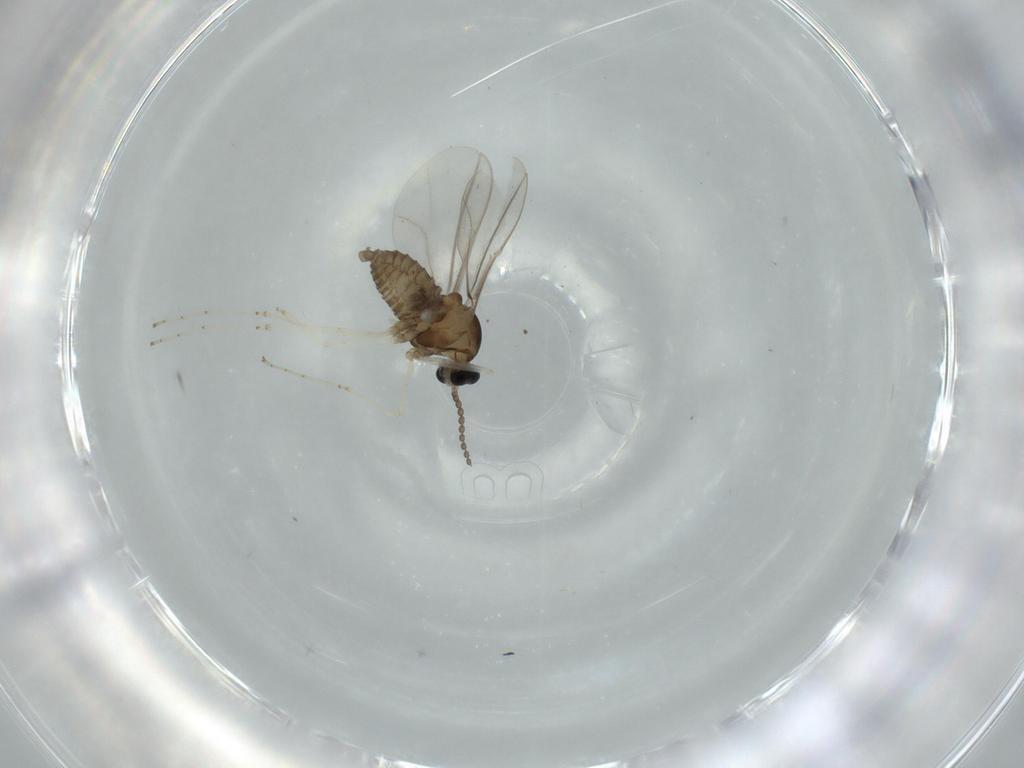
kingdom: Animalia
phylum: Arthropoda
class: Insecta
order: Diptera
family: Cecidomyiidae
